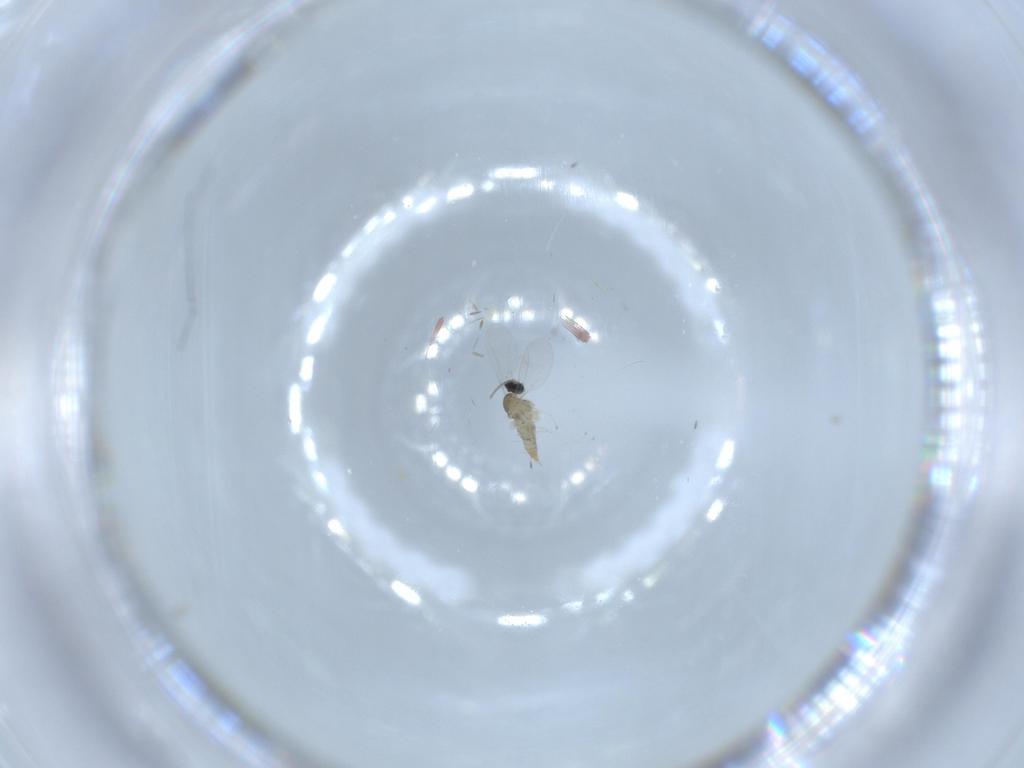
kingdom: Animalia
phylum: Arthropoda
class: Insecta
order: Diptera
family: Cecidomyiidae
